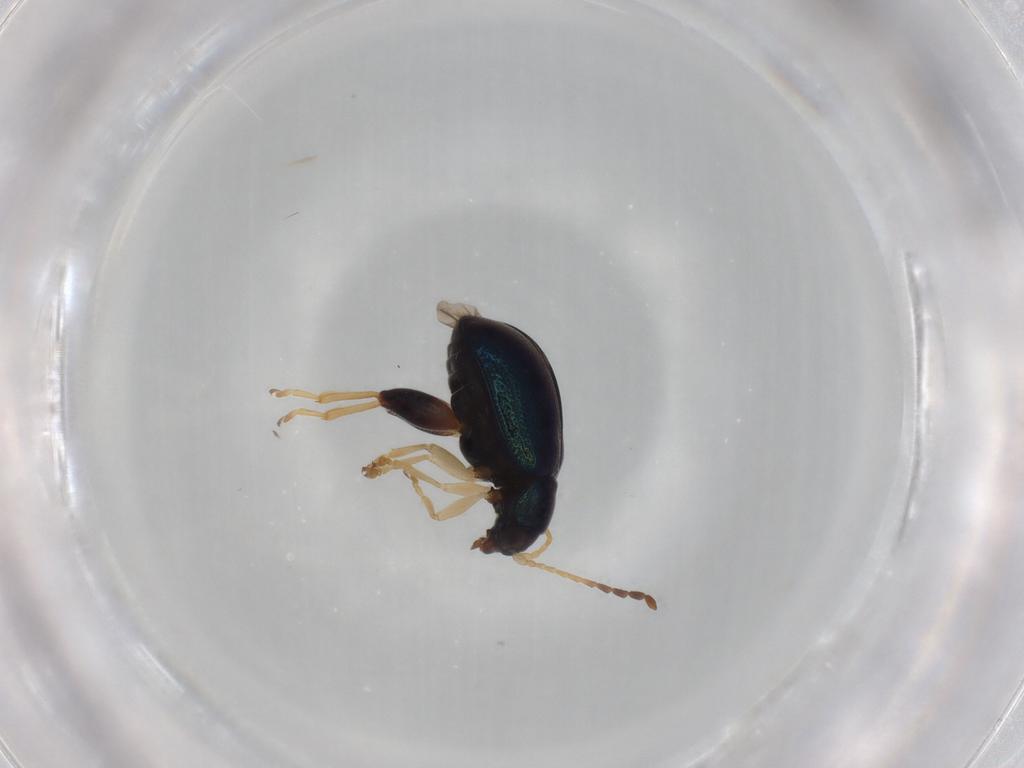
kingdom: Animalia
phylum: Arthropoda
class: Insecta
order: Coleoptera
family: Chrysomelidae
